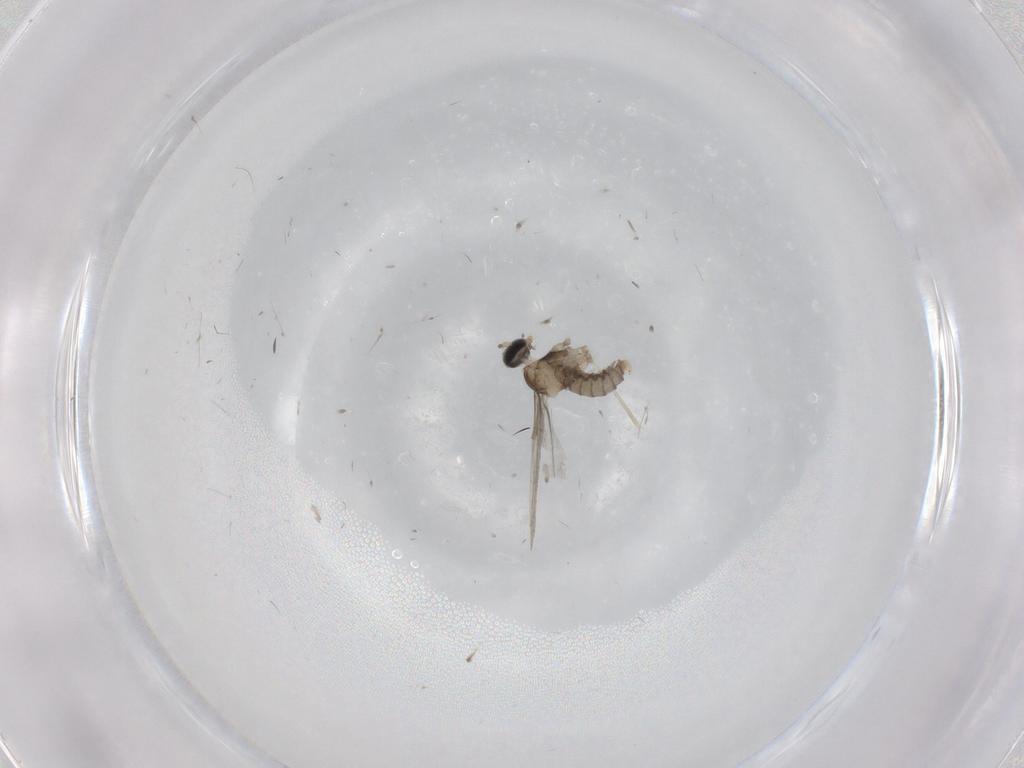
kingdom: Animalia
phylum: Arthropoda
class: Insecta
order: Diptera
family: Cecidomyiidae
